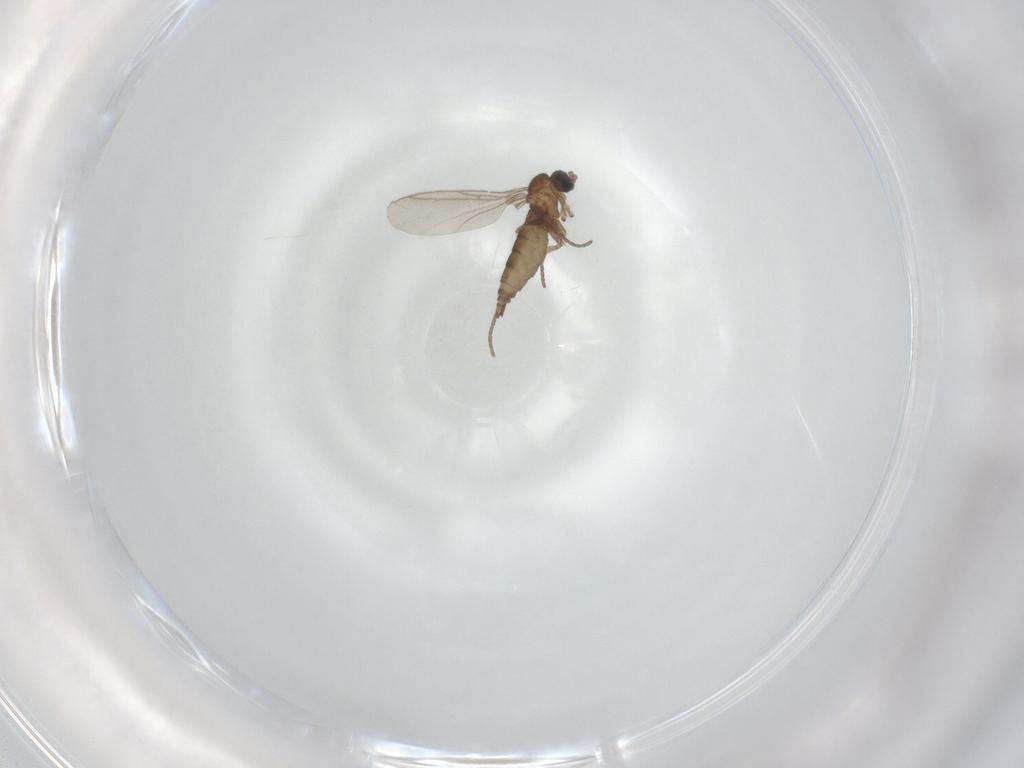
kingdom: Animalia
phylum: Arthropoda
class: Insecta
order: Diptera
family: Sciaridae
